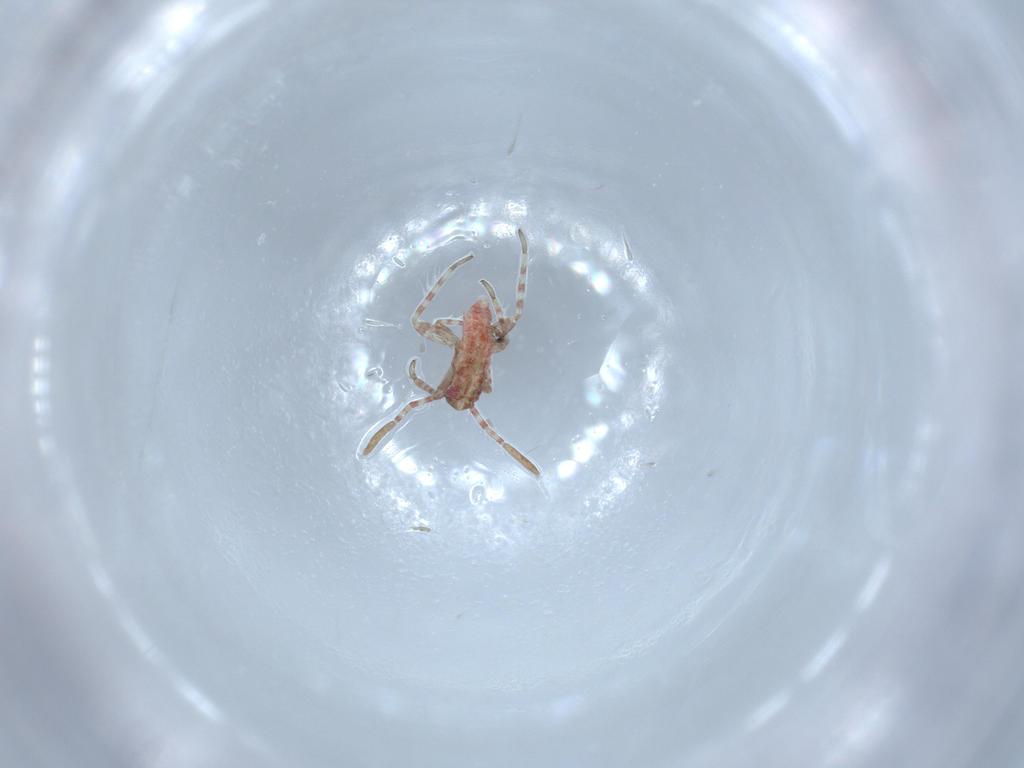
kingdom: Animalia
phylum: Arthropoda
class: Insecta
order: Hemiptera
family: Miridae
